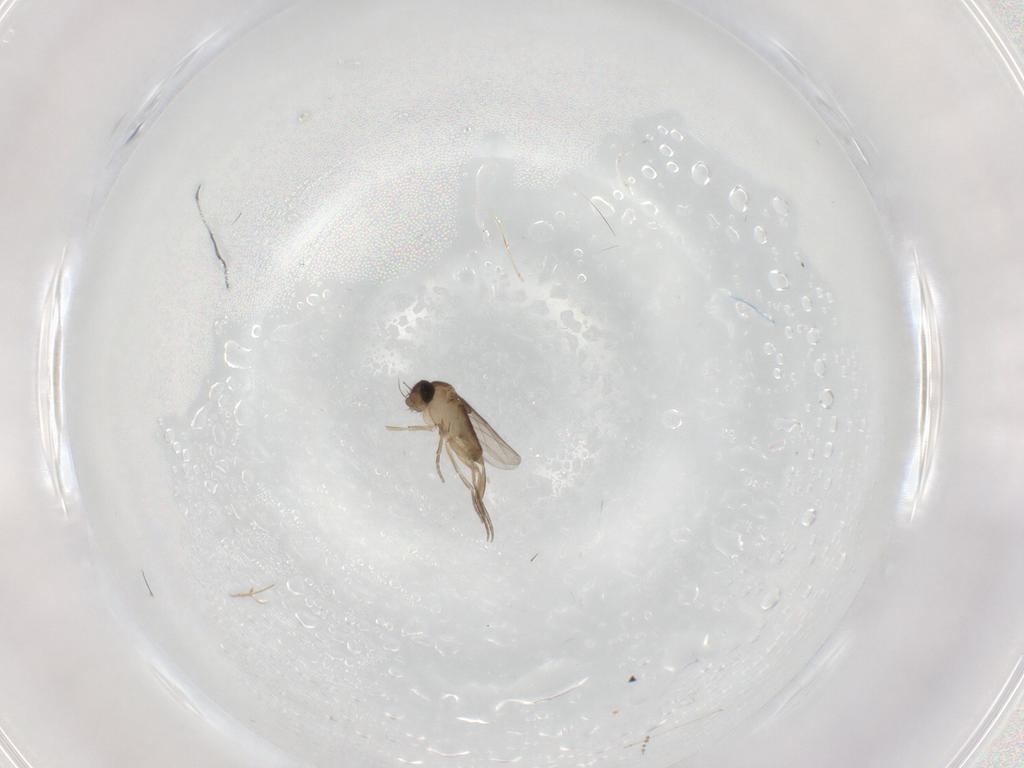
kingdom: Animalia
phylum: Arthropoda
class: Insecta
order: Diptera
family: Phoridae
